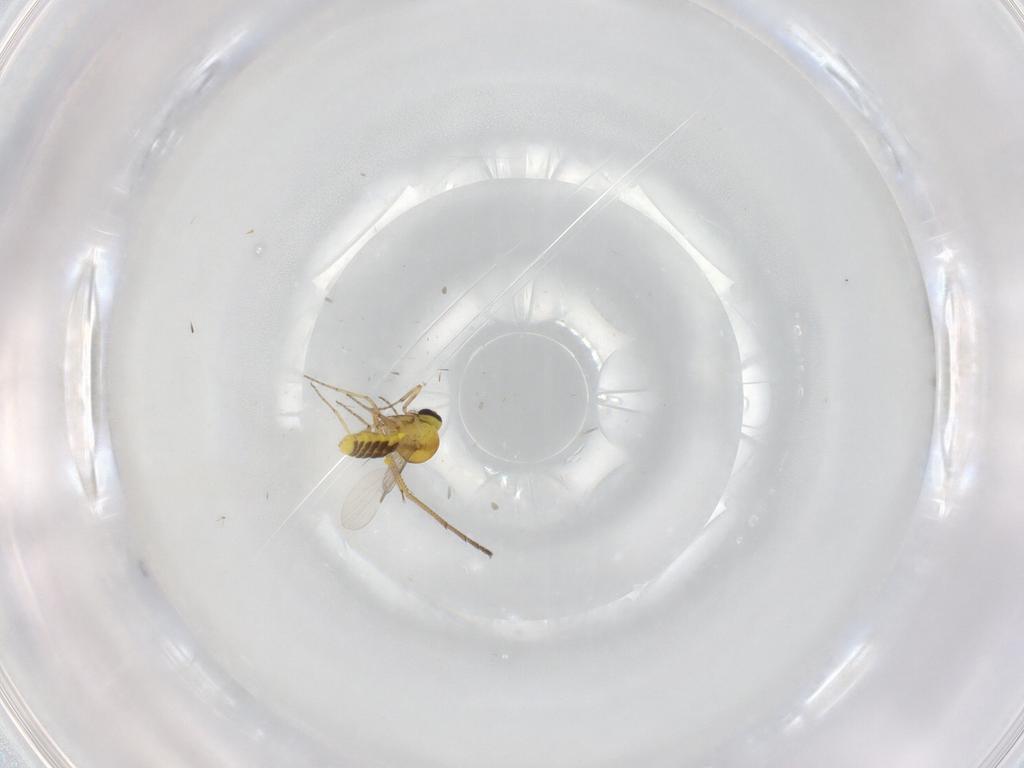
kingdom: Animalia
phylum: Arthropoda
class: Insecta
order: Diptera
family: Ceratopogonidae
